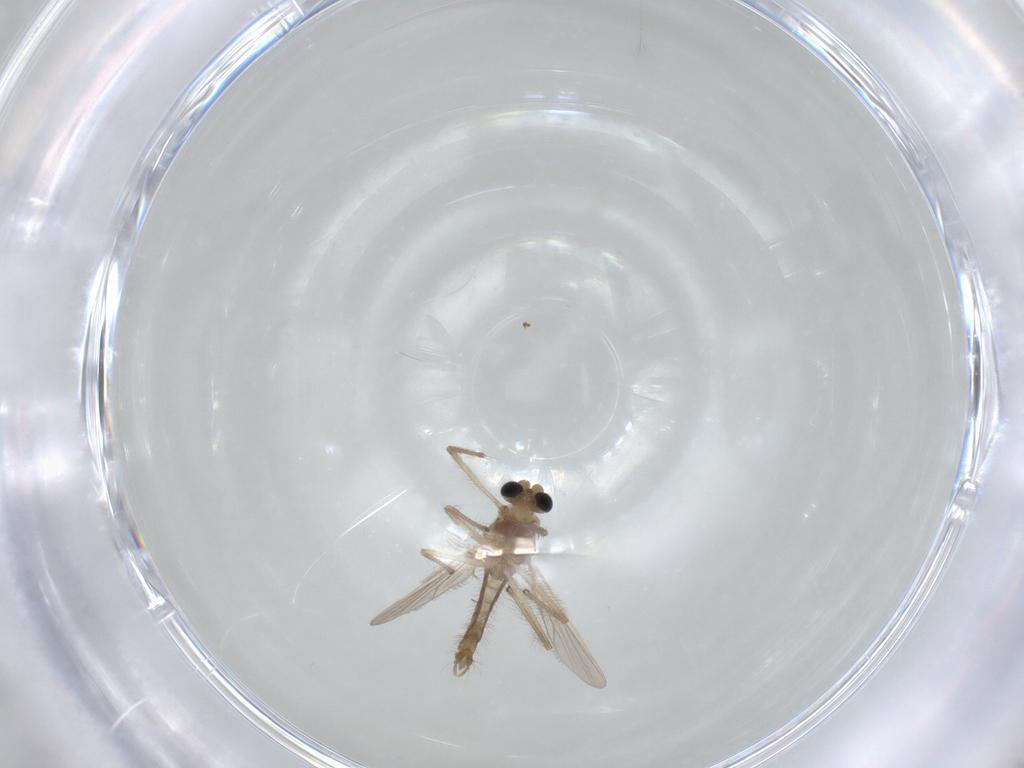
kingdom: Animalia
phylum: Arthropoda
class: Insecta
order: Diptera
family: Chironomidae
